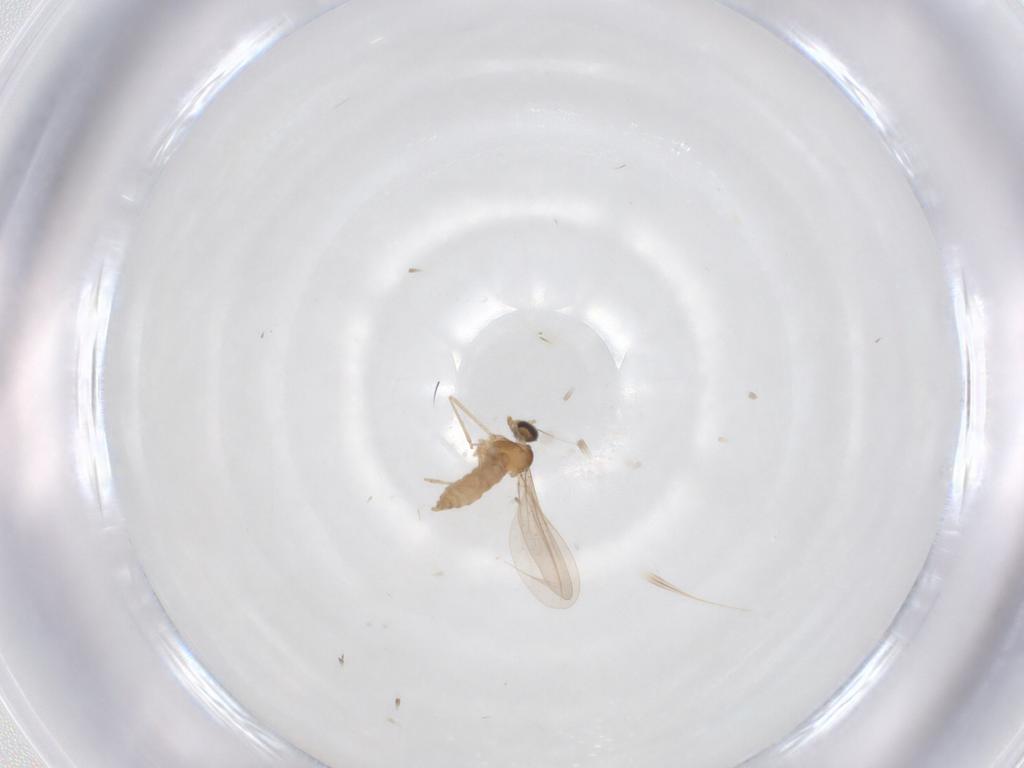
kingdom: Animalia
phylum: Arthropoda
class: Insecta
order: Diptera
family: Cecidomyiidae
